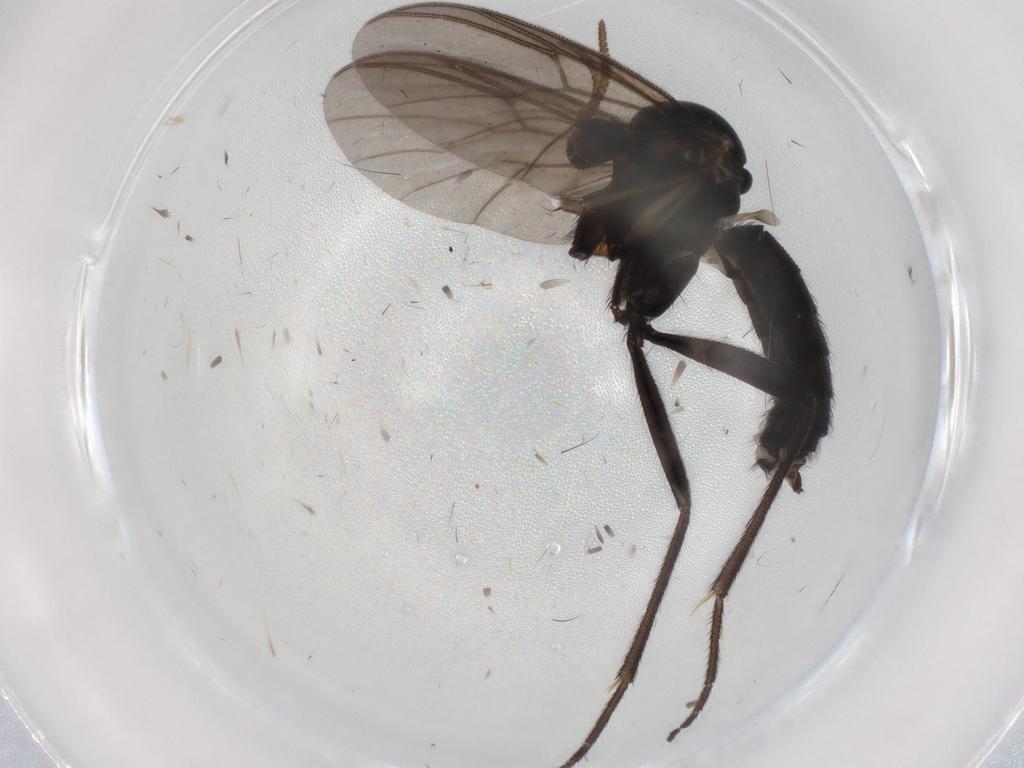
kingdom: Animalia
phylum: Arthropoda
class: Insecta
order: Diptera
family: Mycetophilidae
